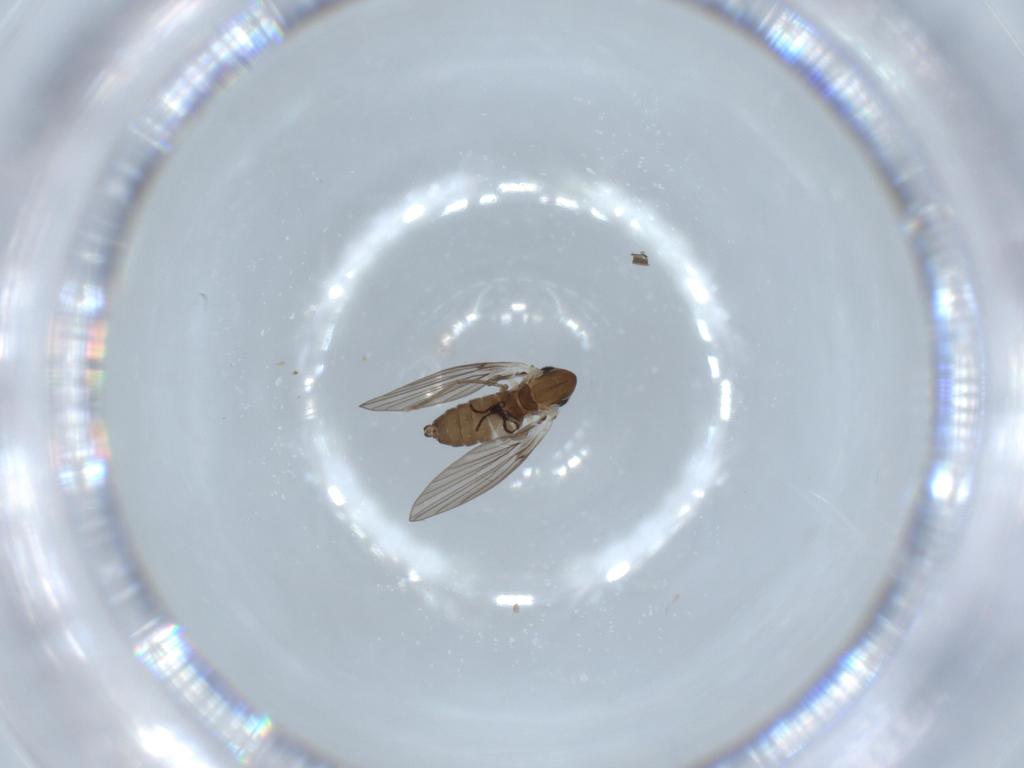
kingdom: Animalia
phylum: Arthropoda
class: Insecta
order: Diptera
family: Psychodidae
